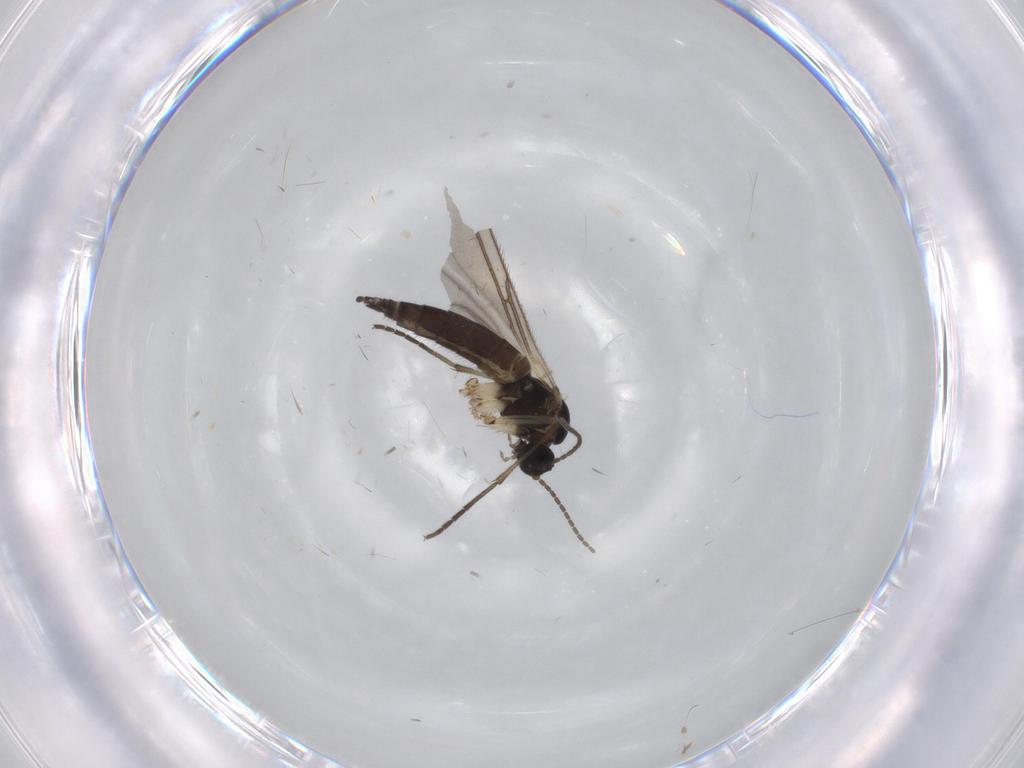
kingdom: Animalia
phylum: Arthropoda
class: Insecta
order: Diptera
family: Sciaridae
